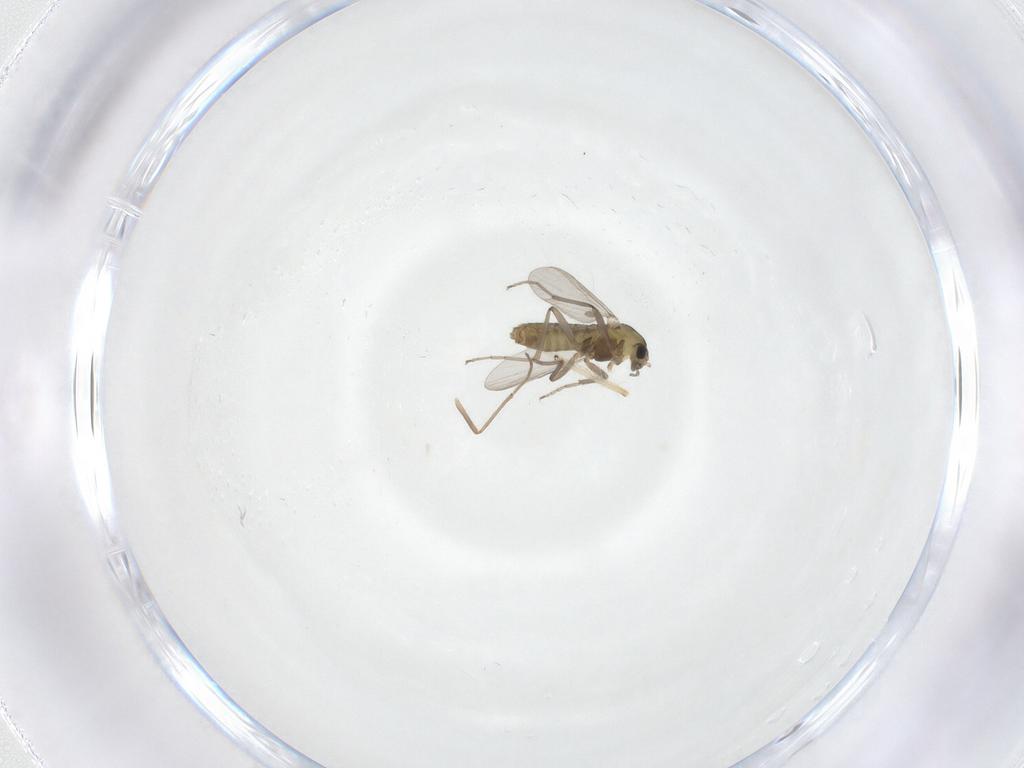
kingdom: Animalia
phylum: Arthropoda
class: Insecta
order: Diptera
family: Chironomidae
